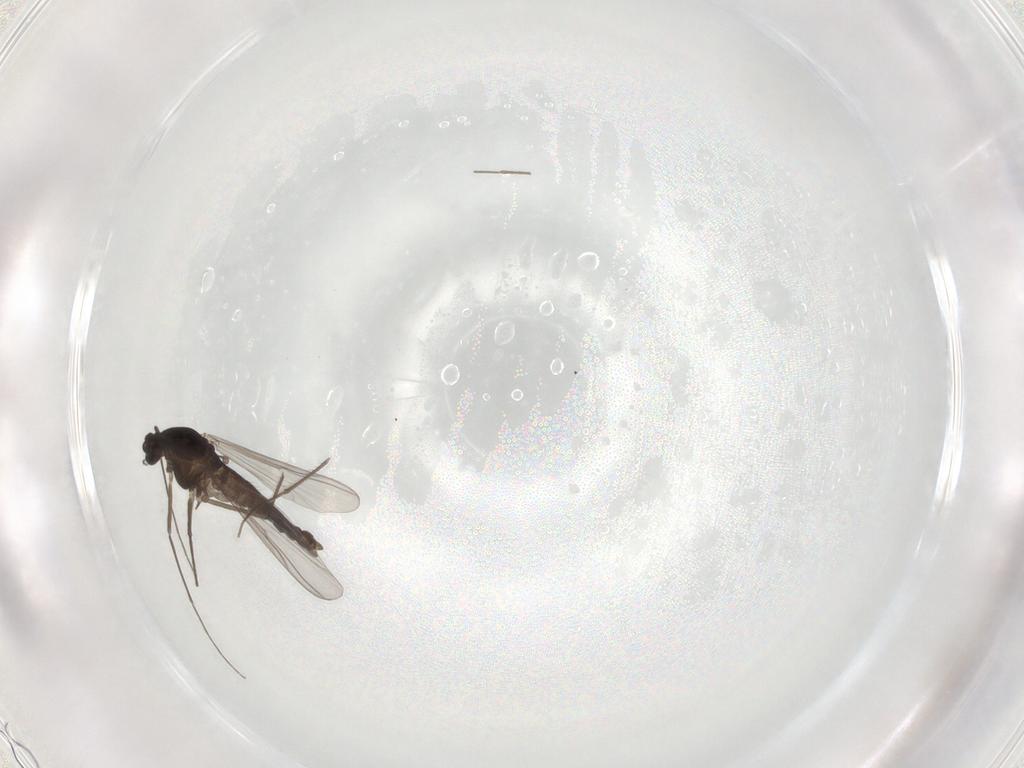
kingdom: Animalia
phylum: Arthropoda
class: Insecta
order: Diptera
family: Chironomidae
